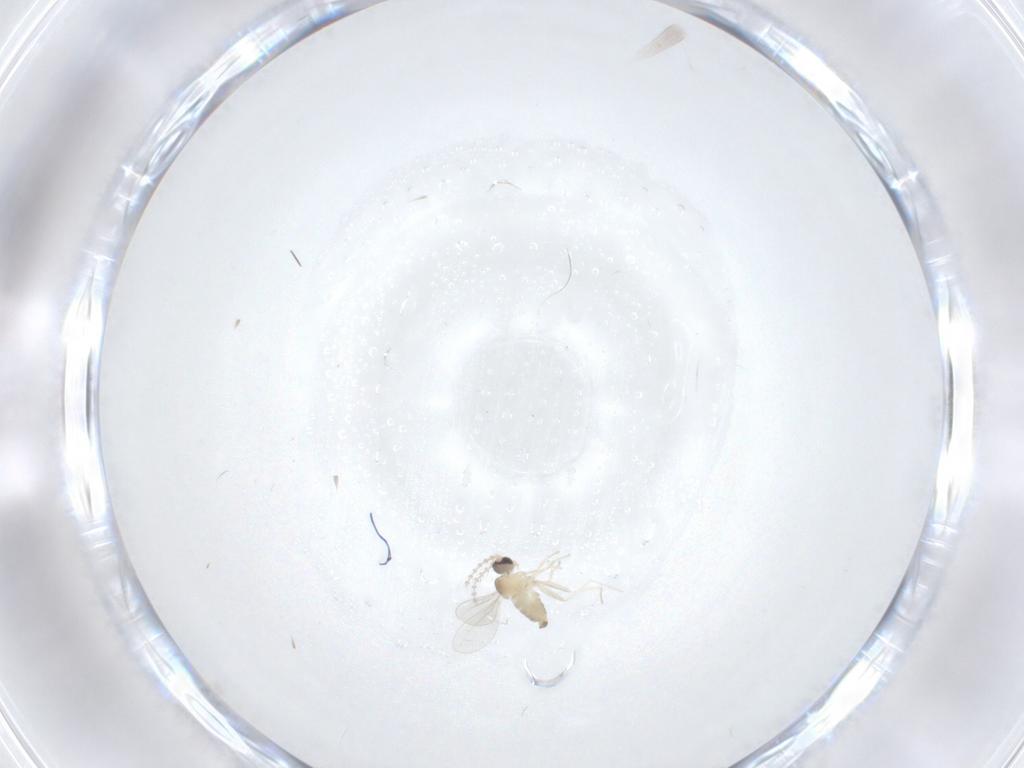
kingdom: Animalia
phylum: Arthropoda
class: Insecta
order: Diptera
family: Cecidomyiidae
